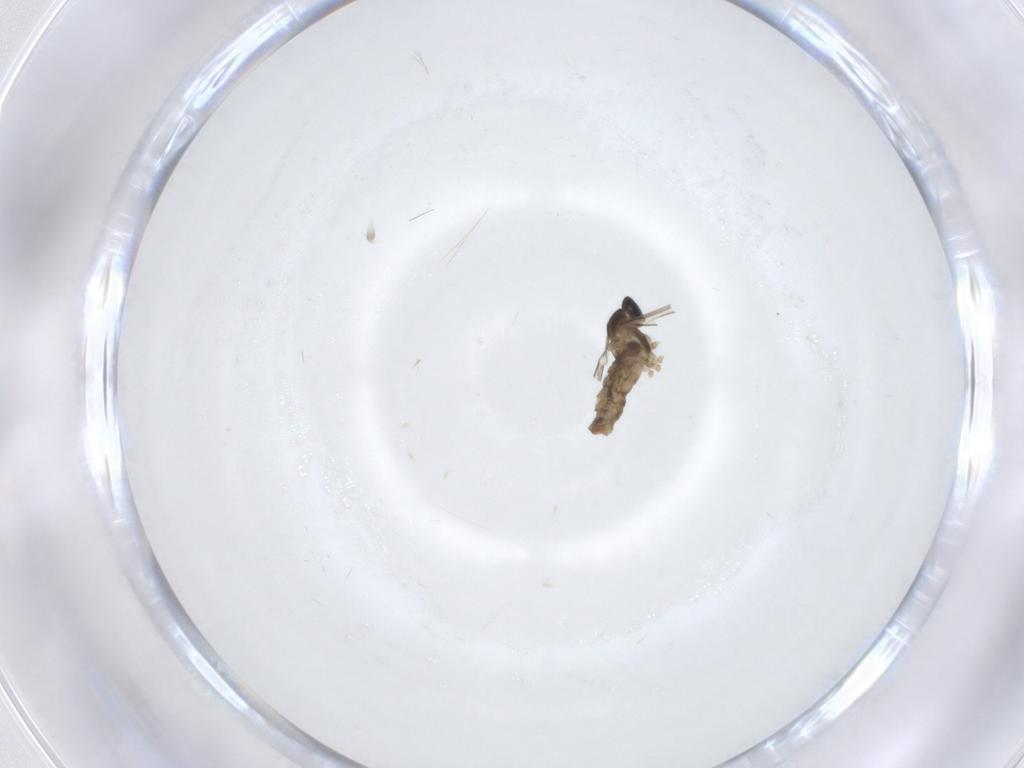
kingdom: Animalia
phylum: Arthropoda
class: Insecta
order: Diptera
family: Cecidomyiidae
